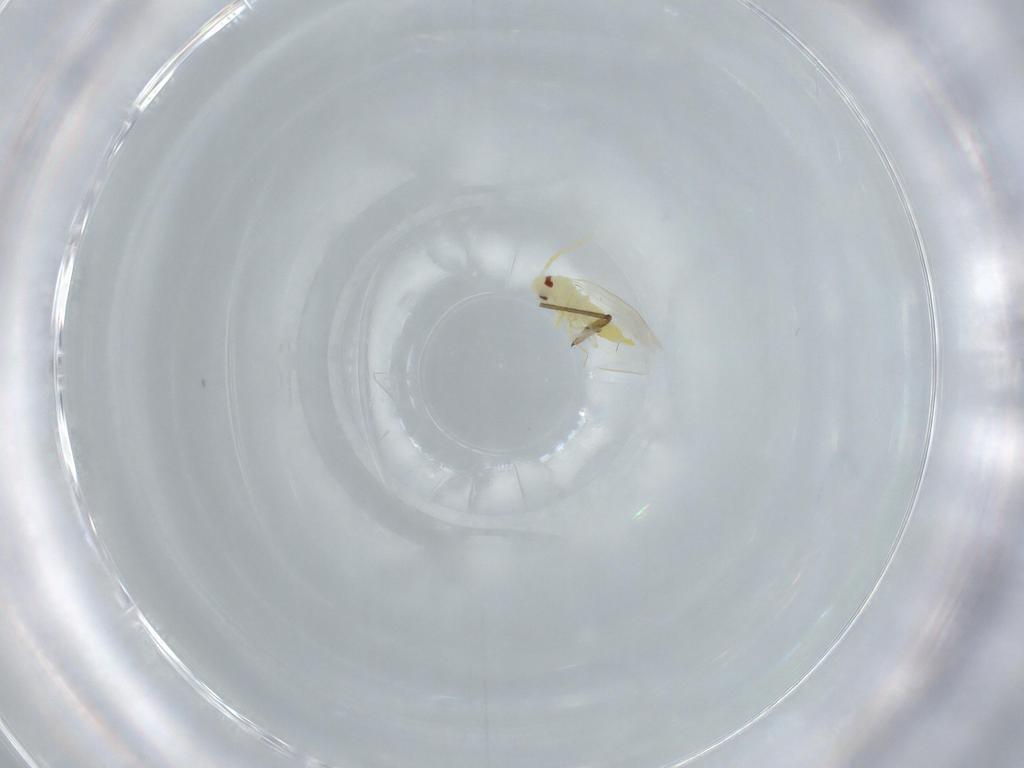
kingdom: Animalia
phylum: Arthropoda
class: Insecta
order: Hemiptera
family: Aleyrodidae
